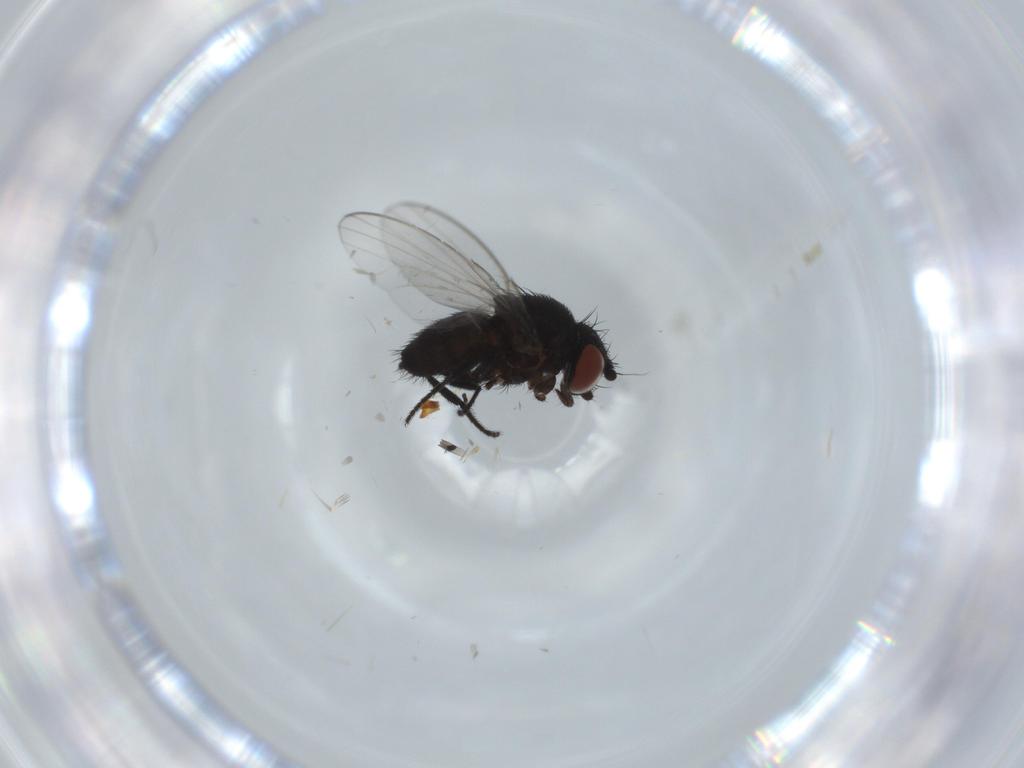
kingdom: Animalia
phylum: Arthropoda
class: Insecta
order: Diptera
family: Milichiidae
